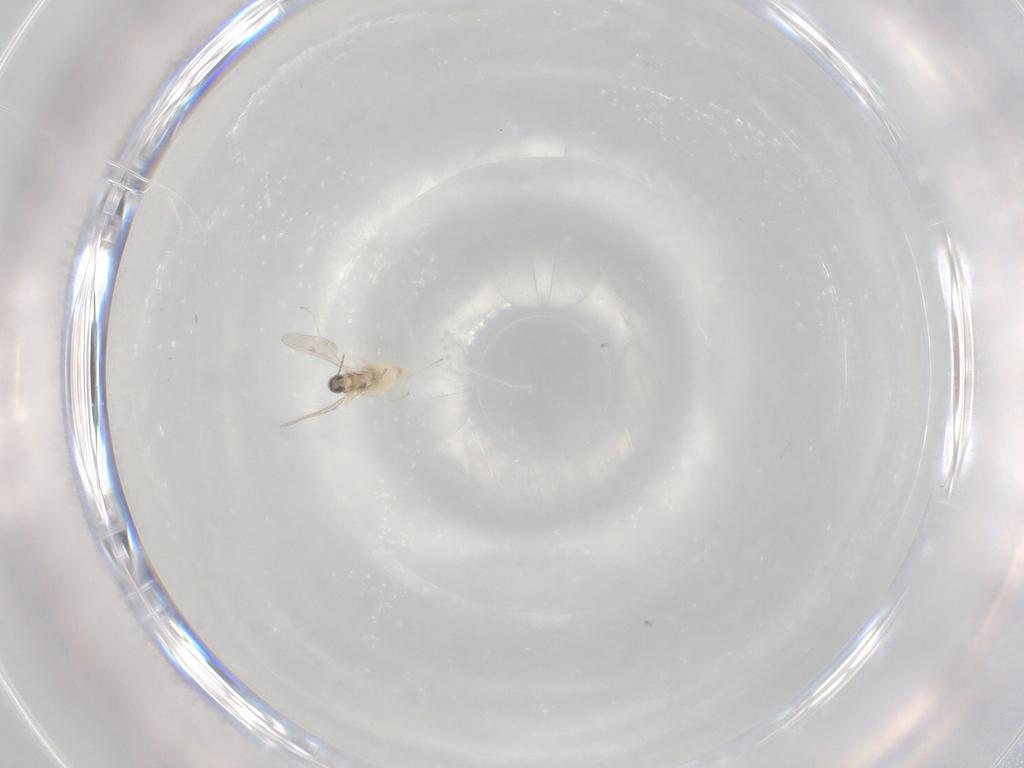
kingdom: Animalia
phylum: Arthropoda
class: Insecta
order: Diptera
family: Cecidomyiidae
